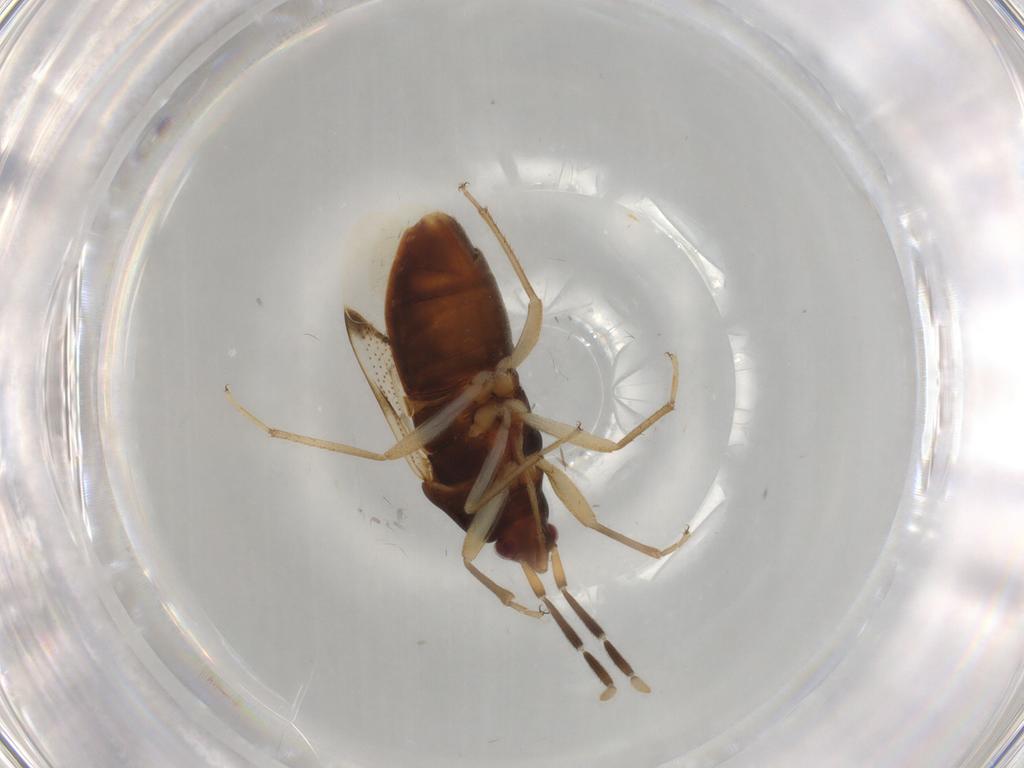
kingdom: Animalia
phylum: Arthropoda
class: Insecta
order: Hemiptera
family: Rhyparochromidae
